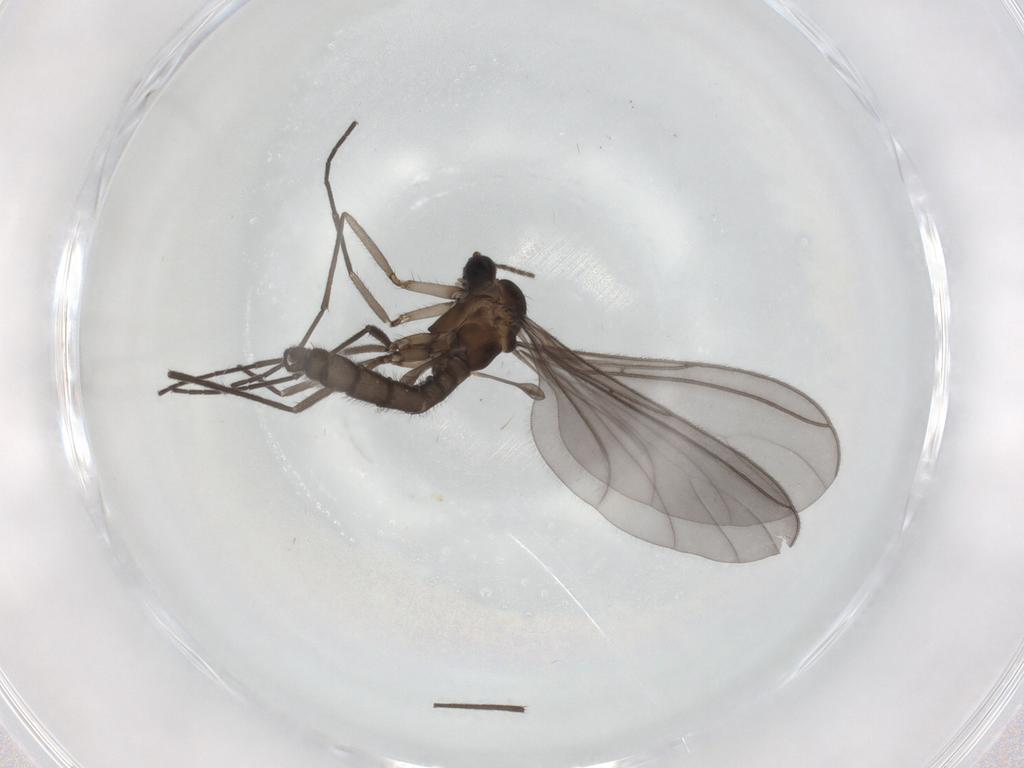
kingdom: Animalia
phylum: Arthropoda
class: Insecta
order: Diptera
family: Sciaridae
